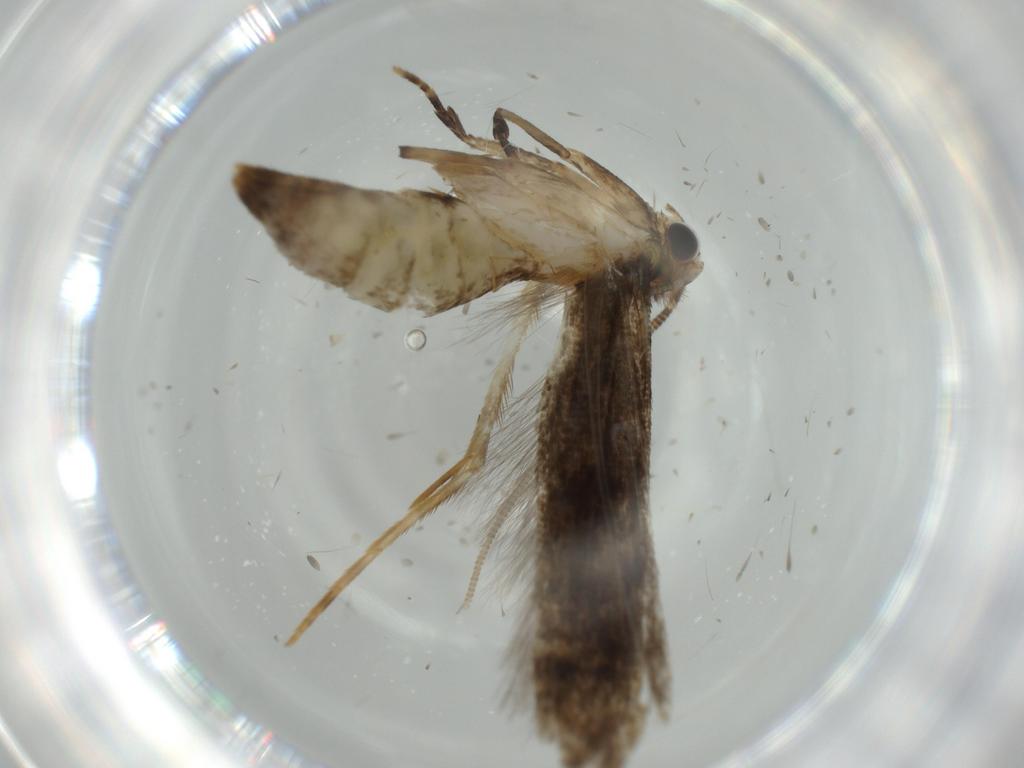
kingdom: Animalia
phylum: Arthropoda
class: Insecta
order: Lepidoptera
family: Tineidae
